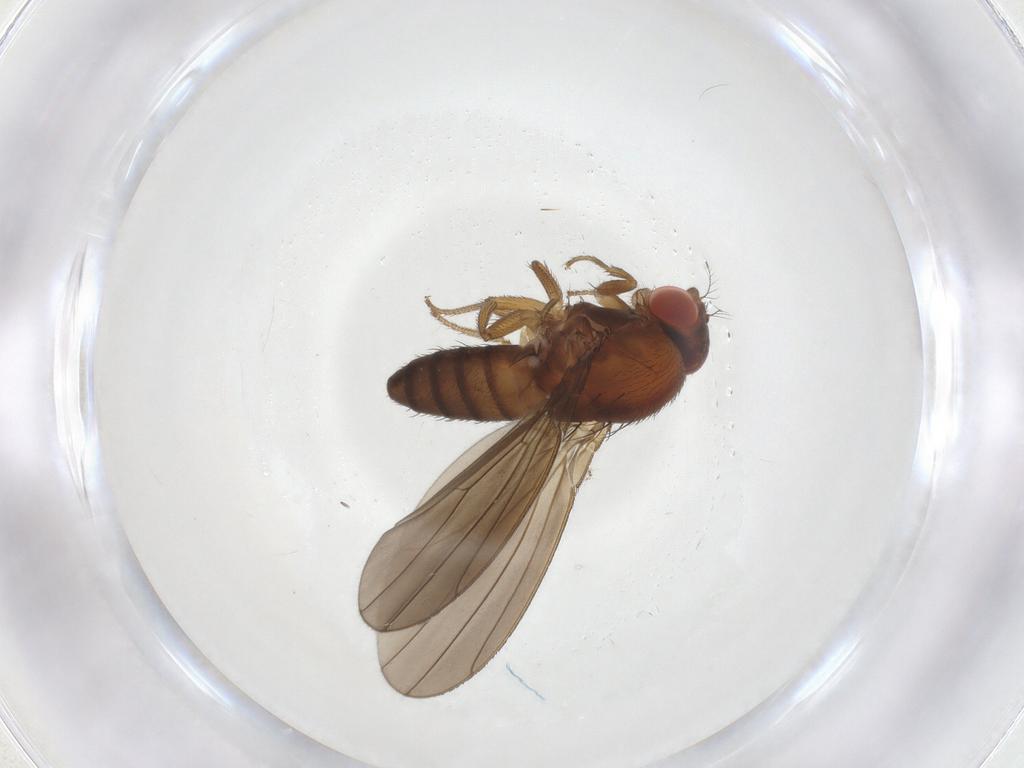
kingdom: Animalia
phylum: Arthropoda
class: Insecta
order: Diptera
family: Drosophilidae
